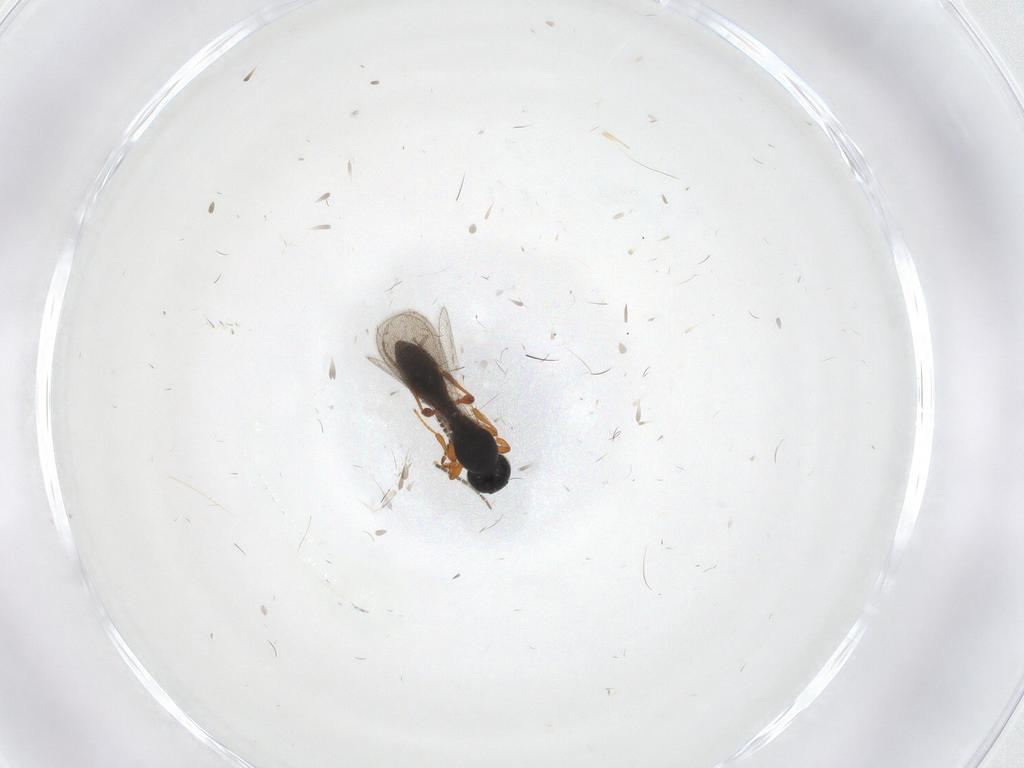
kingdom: Animalia
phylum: Arthropoda
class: Insecta
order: Hymenoptera
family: Platygastridae
